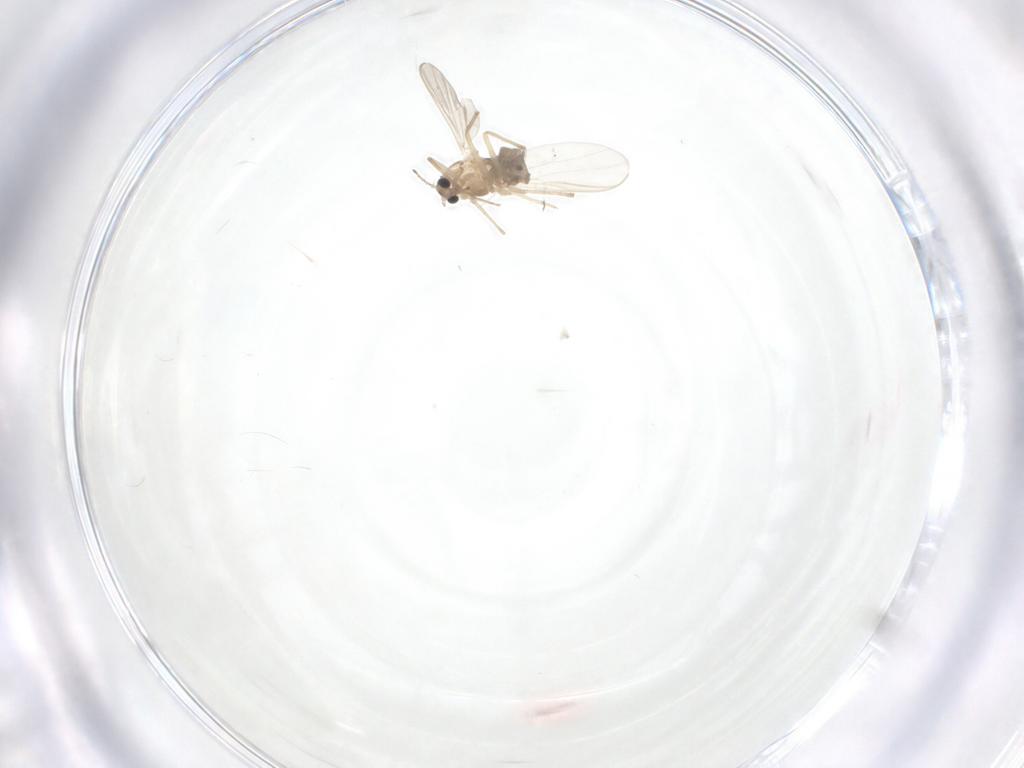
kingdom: Animalia
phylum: Arthropoda
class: Insecta
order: Diptera
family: Chironomidae
